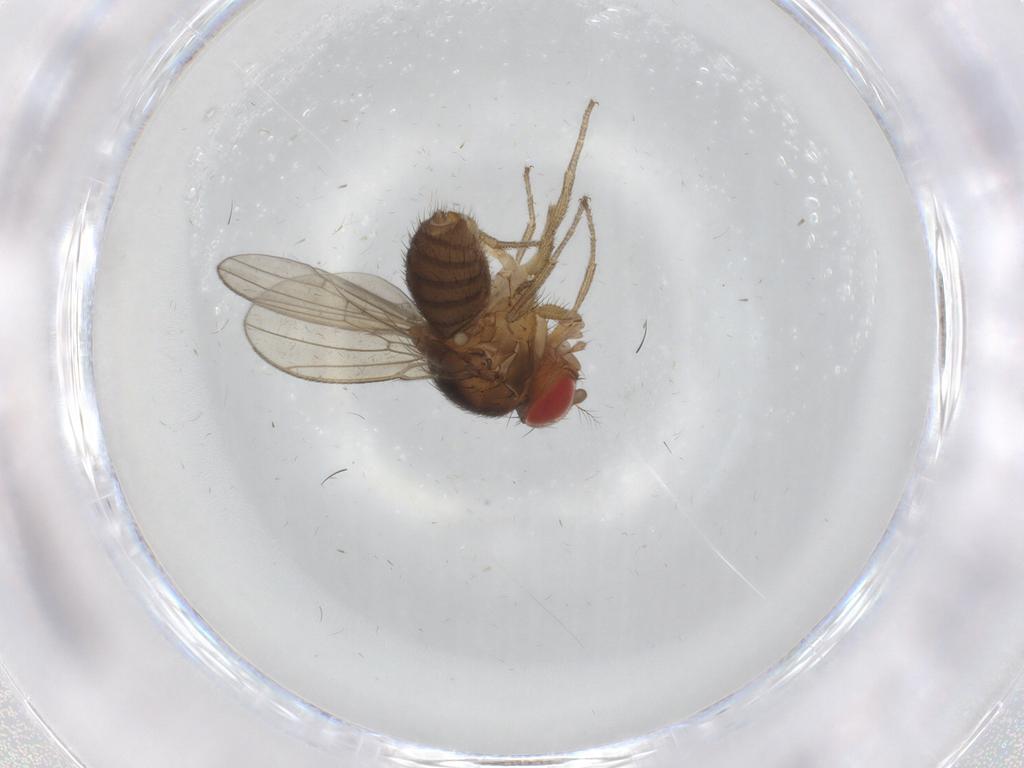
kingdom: Animalia
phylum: Arthropoda
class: Insecta
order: Diptera
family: Drosophilidae
